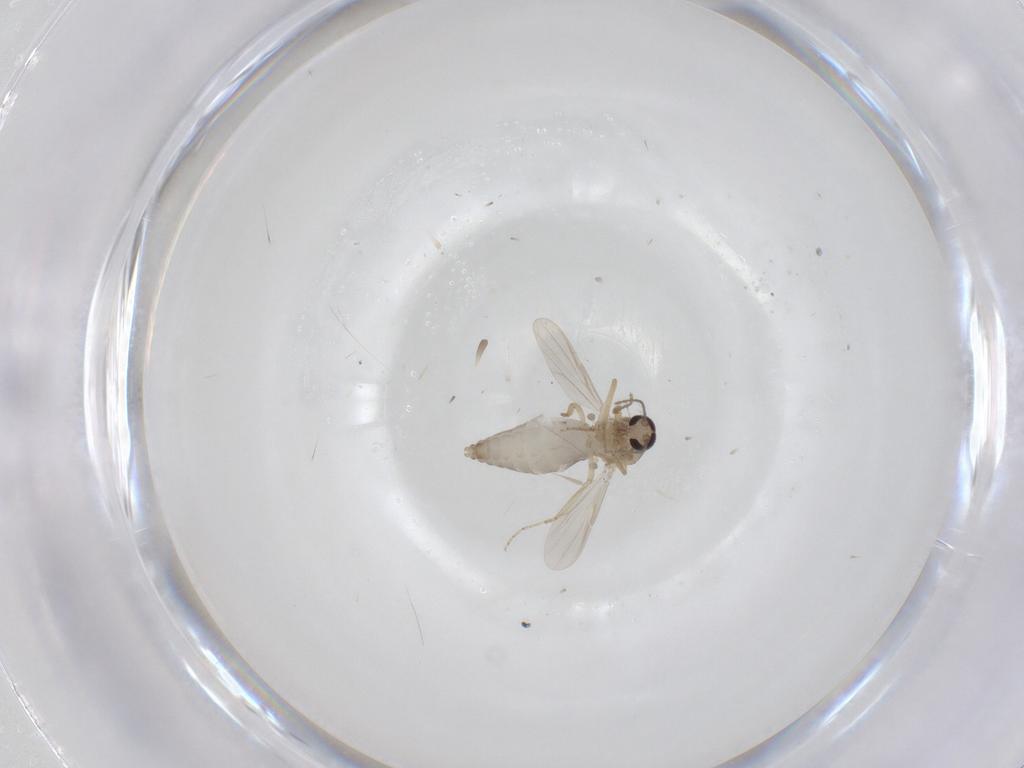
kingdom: Animalia
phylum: Arthropoda
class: Insecta
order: Diptera
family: Ceratopogonidae
